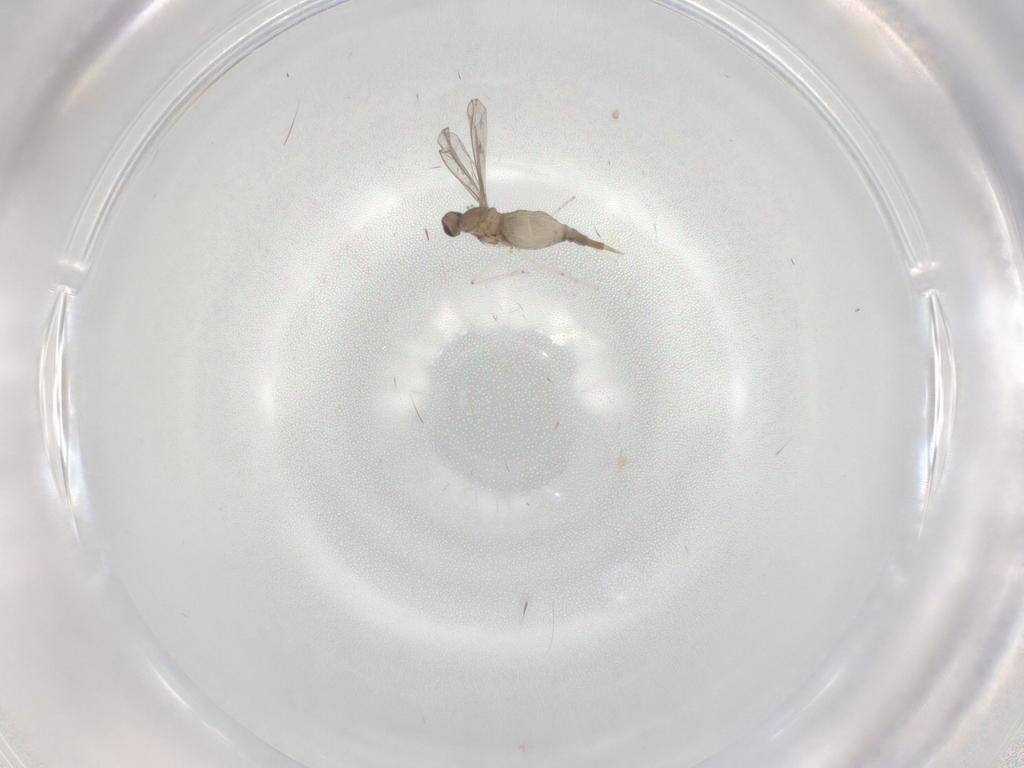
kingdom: Animalia
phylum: Arthropoda
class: Insecta
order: Diptera
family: Cecidomyiidae
